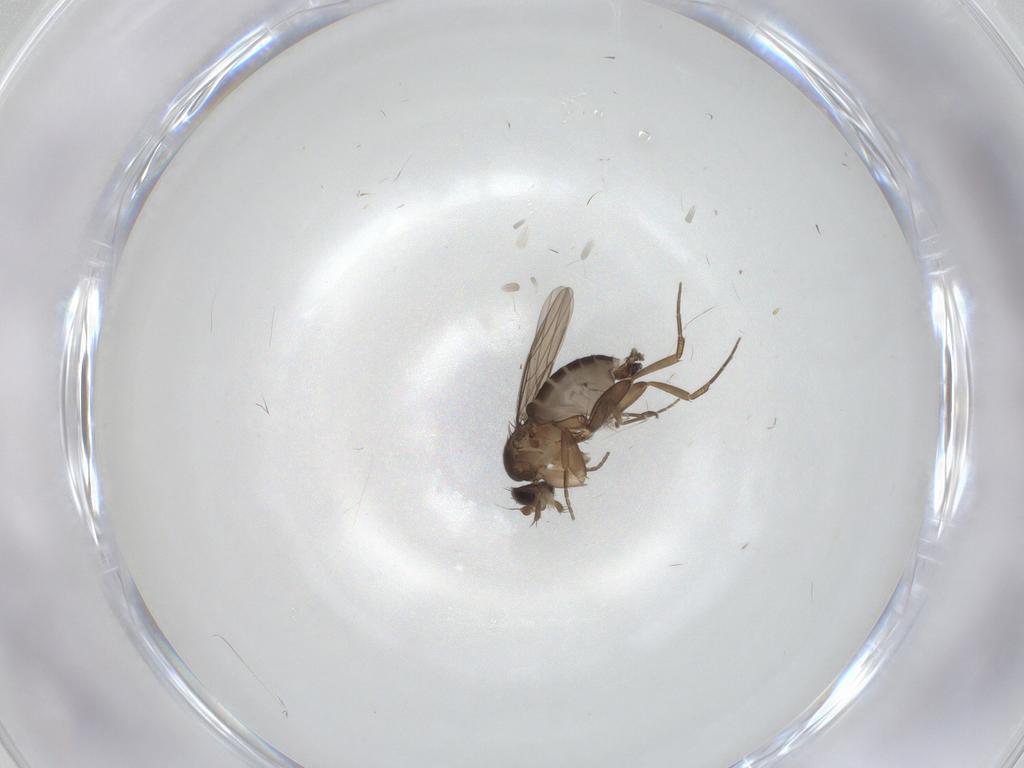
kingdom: Animalia
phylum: Arthropoda
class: Insecta
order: Diptera
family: Phoridae
